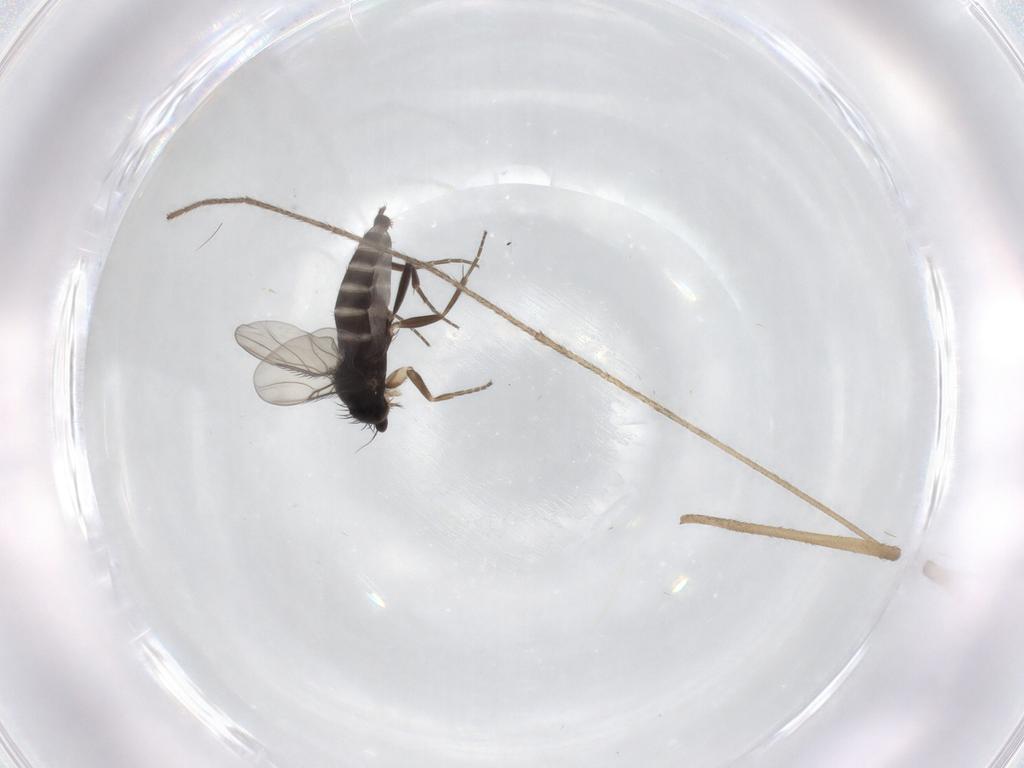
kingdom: Animalia
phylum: Arthropoda
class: Insecta
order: Diptera
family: Phoridae
